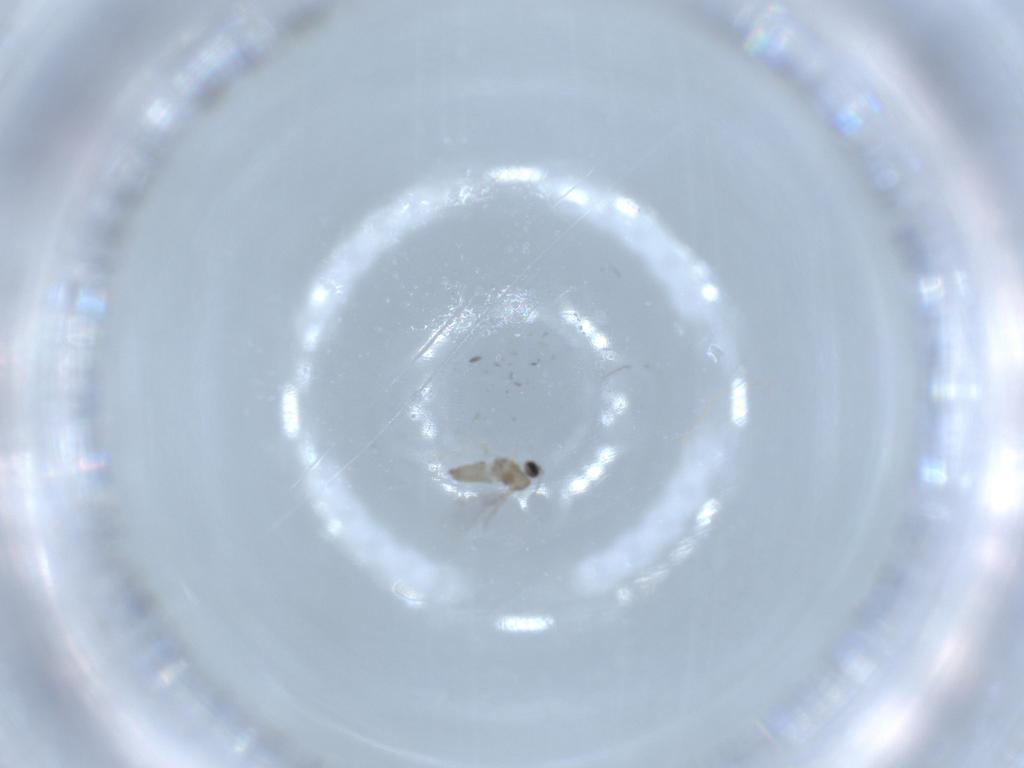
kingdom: Animalia
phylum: Arthropoda
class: Insecta
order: Diptera
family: Cecidomyiidae
